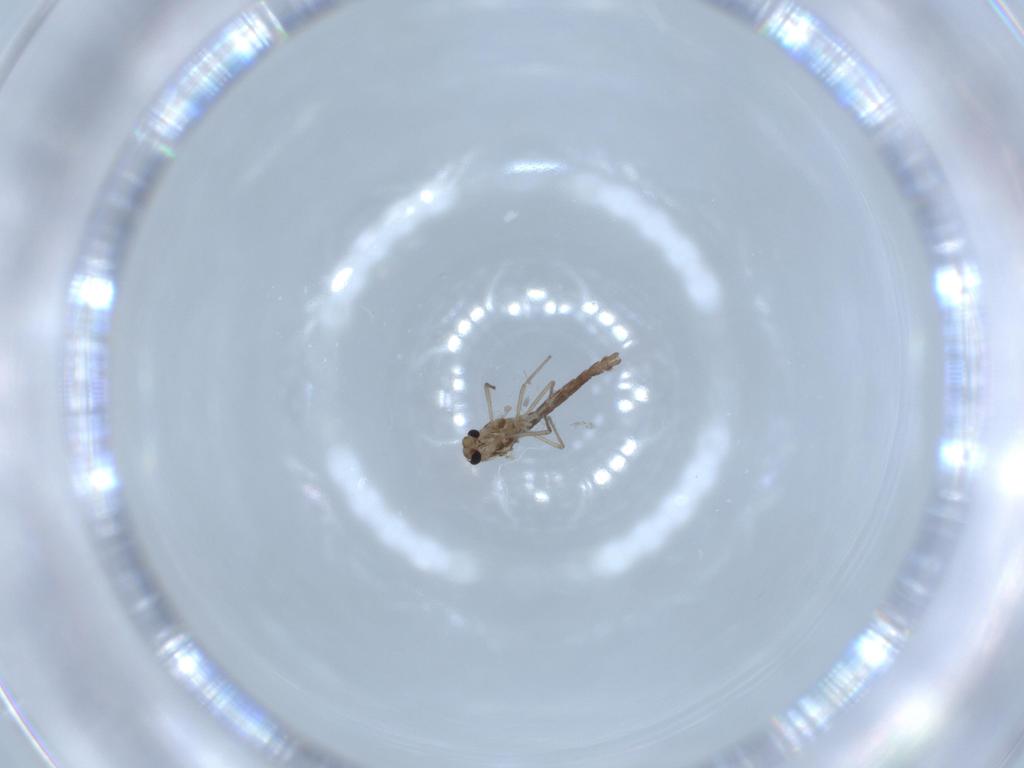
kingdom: Animalia
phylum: Arthropoda
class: Insecta
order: Diptera
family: Chironomidae
